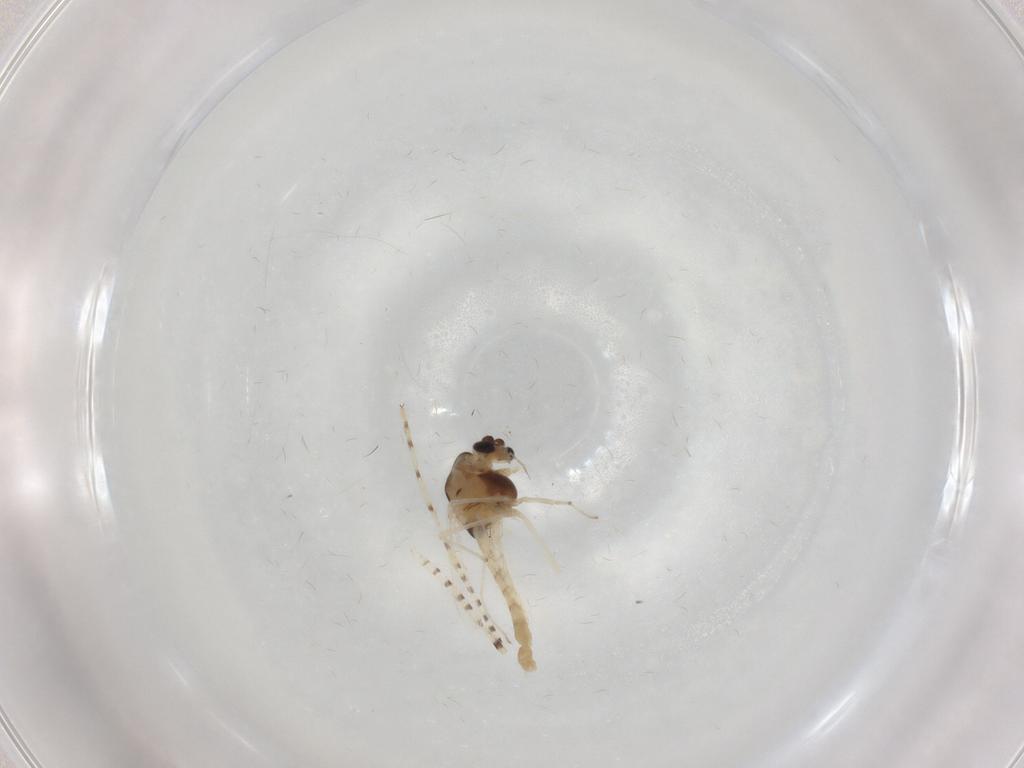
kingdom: Animalia
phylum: Arthropoda
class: Insecta
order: Diptera
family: Chironomidae
